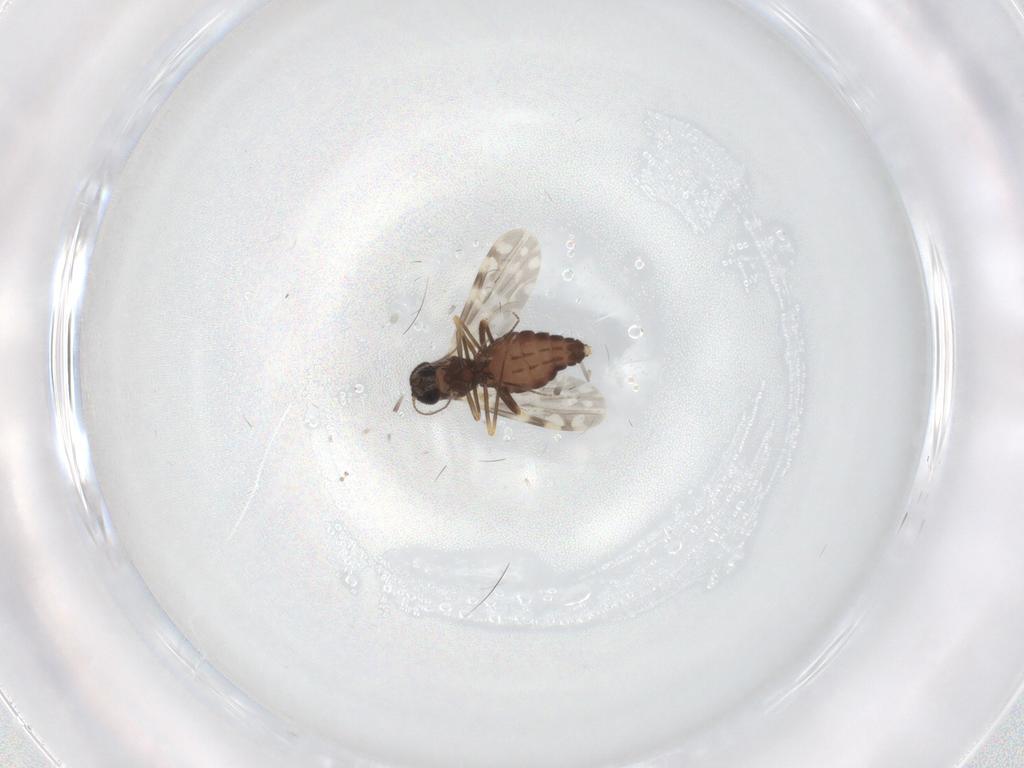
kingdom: Animalia
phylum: Arthropoda
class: Insecta
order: Diptera
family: Ceratopogonidae
